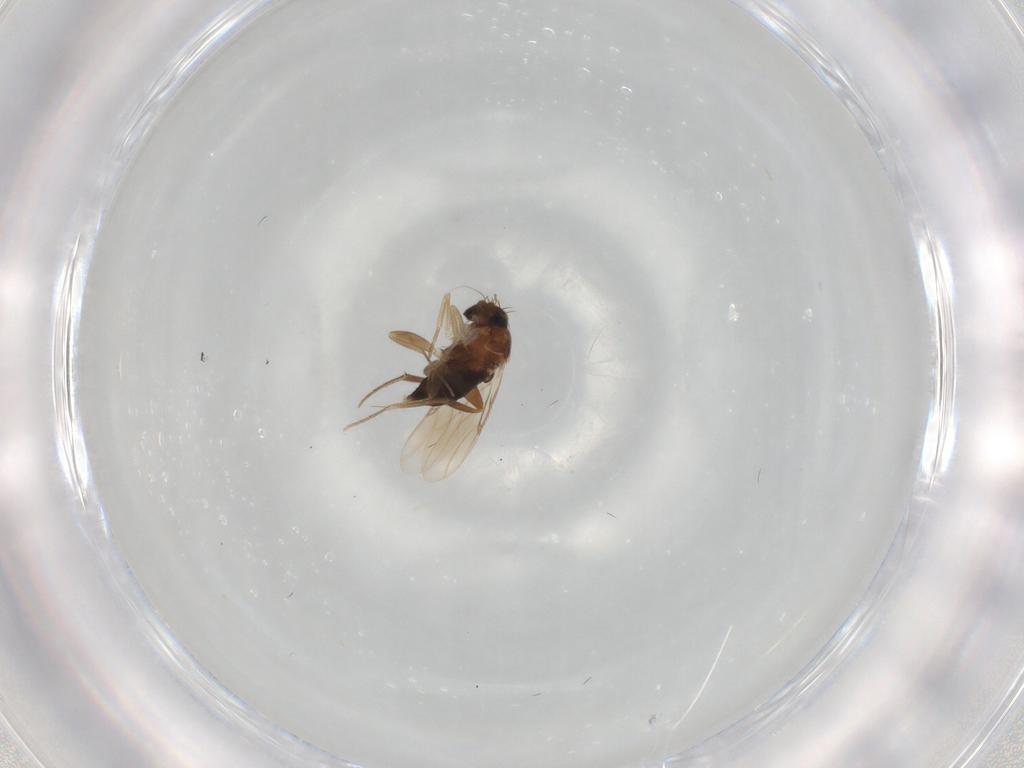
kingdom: Animalia
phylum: Arthropoda
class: Insecta
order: Diptera
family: Phoridae
